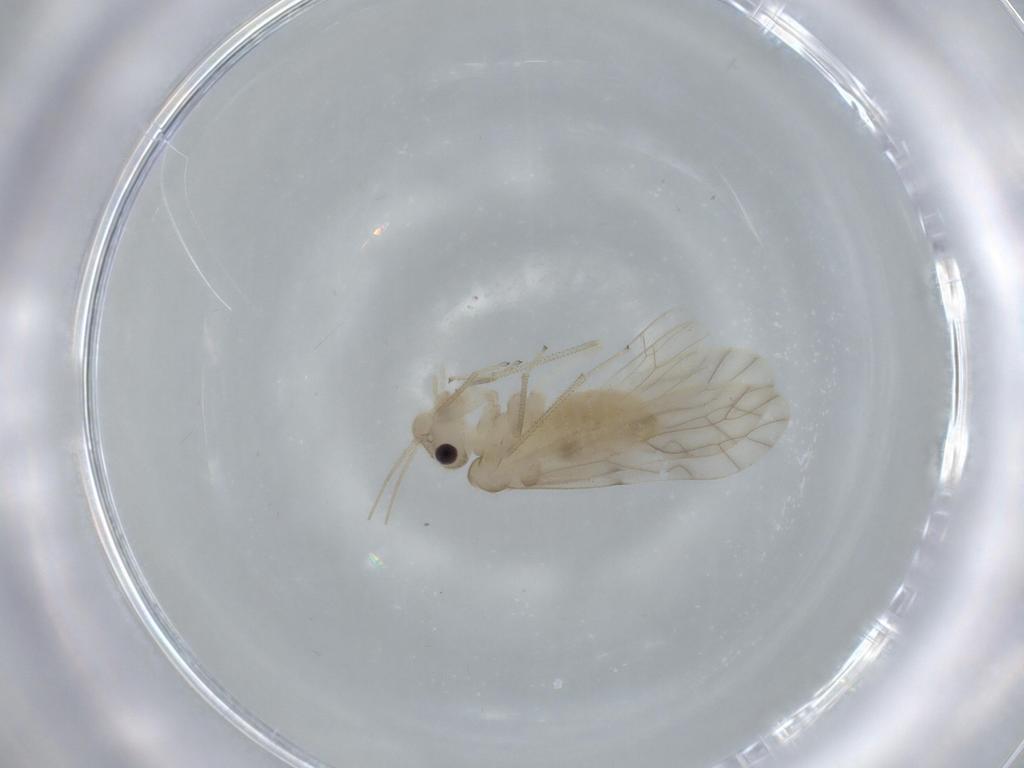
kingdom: Animalia
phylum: Arthropoda
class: Insecta
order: Psocodea
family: Caeciliusidae
